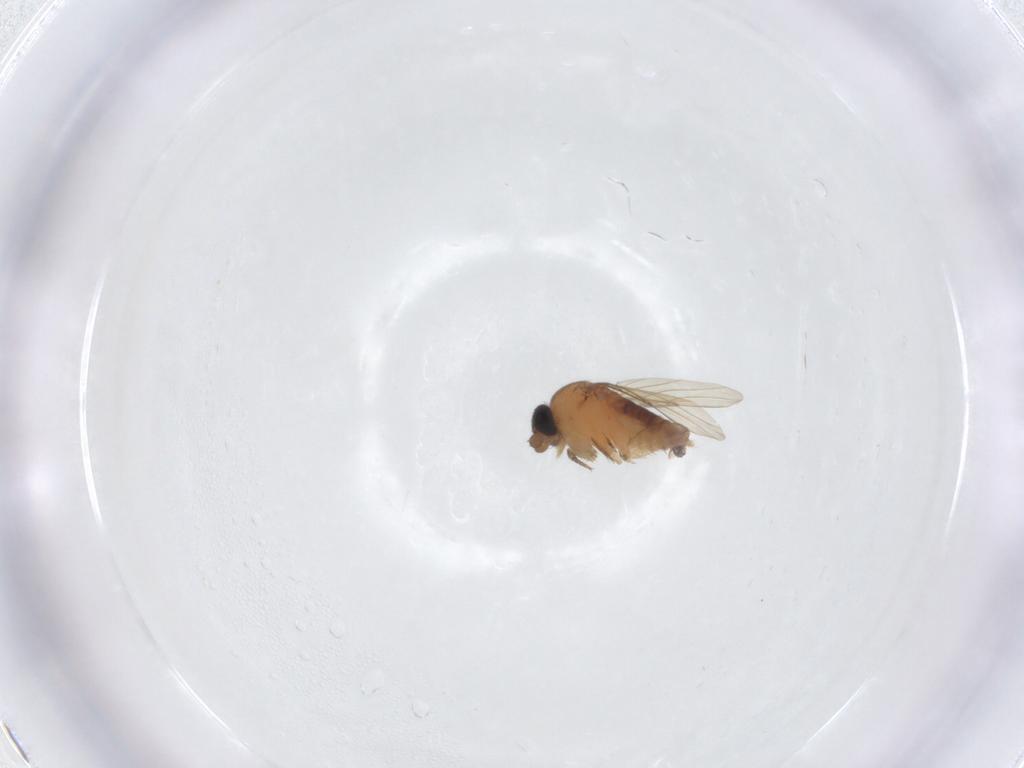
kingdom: Animalia
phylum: Arthropoda
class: Insecta
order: Diptera
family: Phoridae
